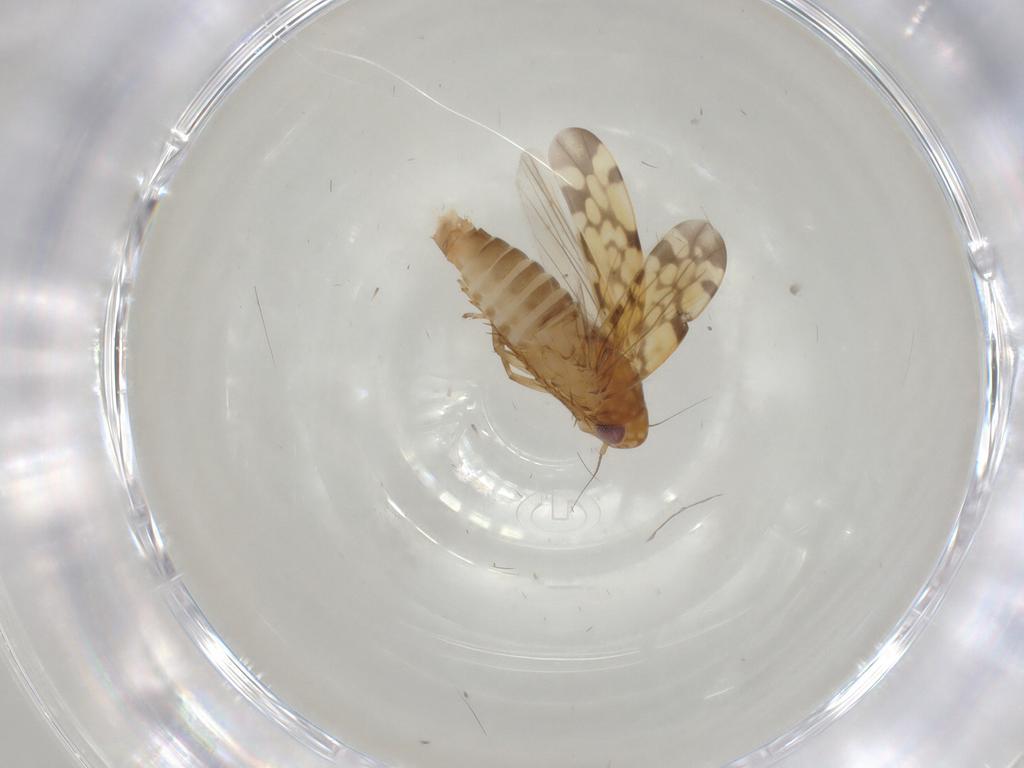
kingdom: Animalia
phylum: Arthropoda
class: Insecta
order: Hemiptera
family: Cicadellidae
